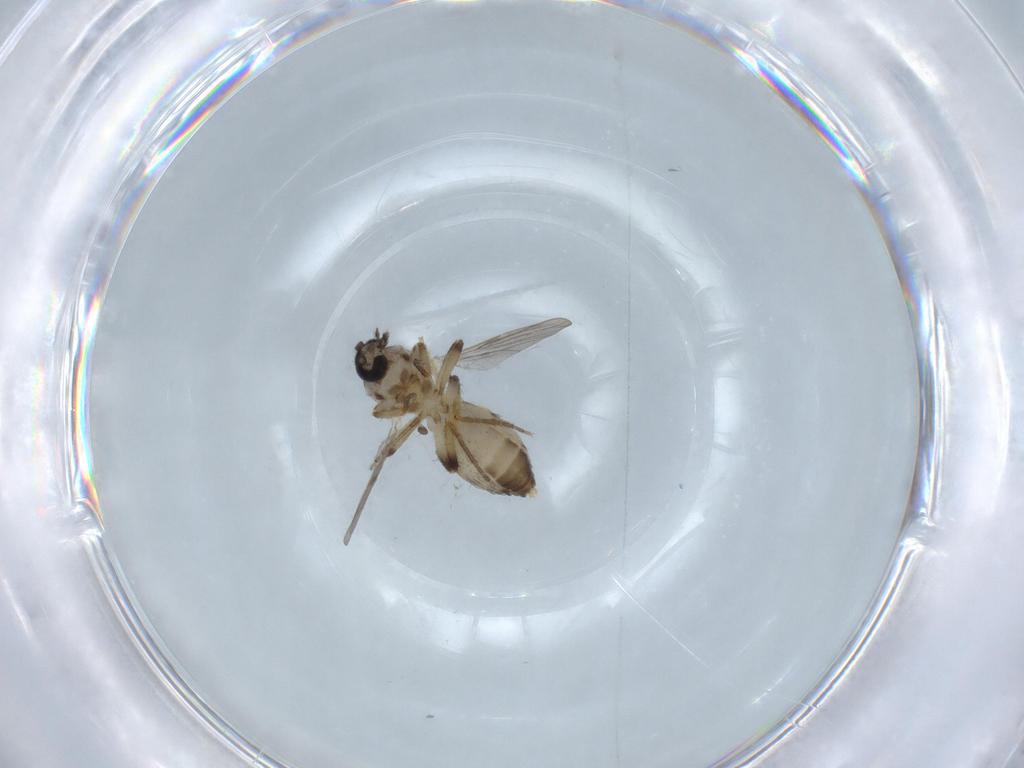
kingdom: Animalia
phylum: Arthropoda
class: Insecta
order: Diptera
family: Ceratopogonidae
